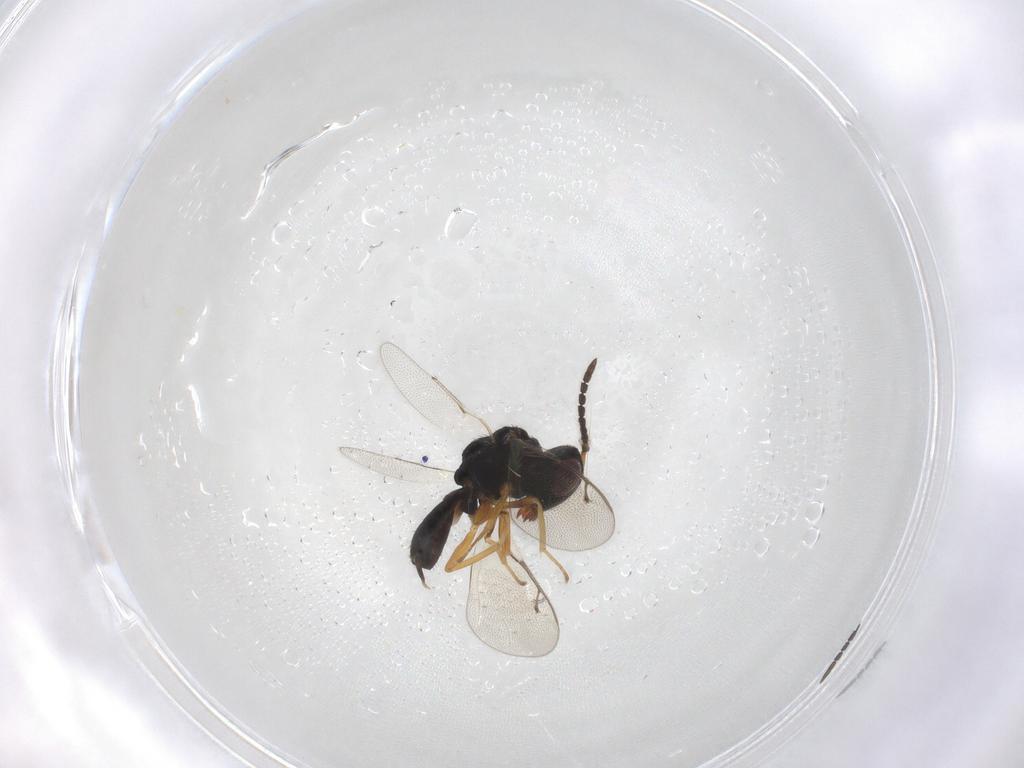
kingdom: Animalia
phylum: Arthropoda
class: Insecta
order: Hymenoptera
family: Pteromalidae
